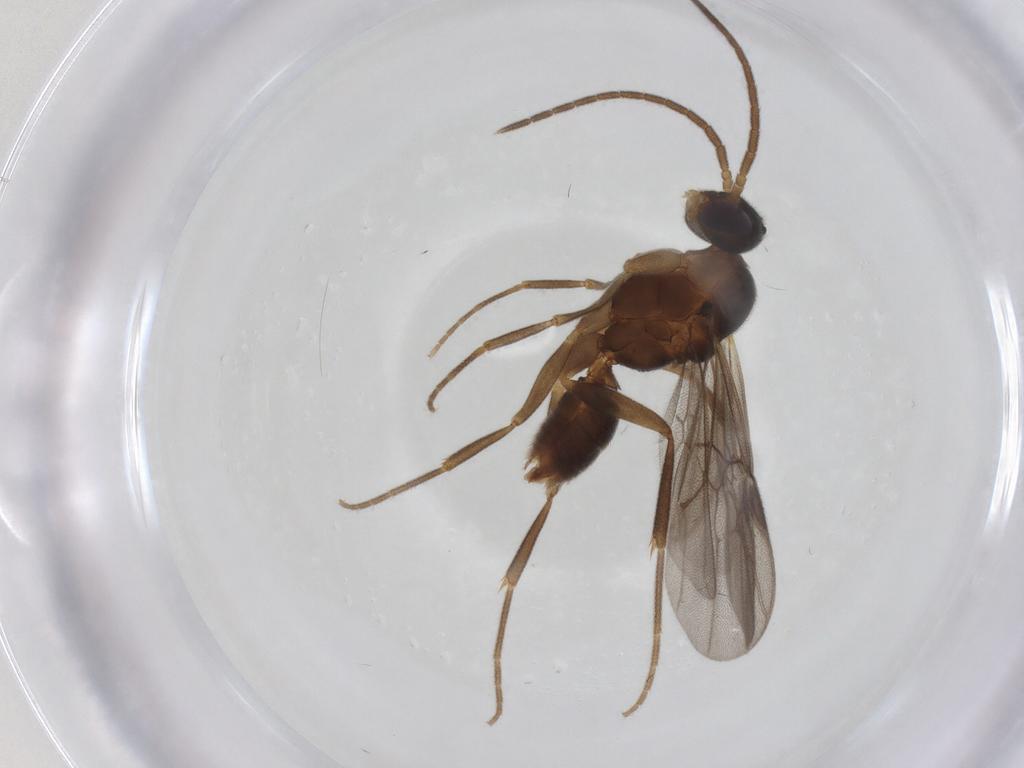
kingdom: Animalia
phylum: Arthropoda
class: Insecta
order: Hymenoptera
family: Formicidae
